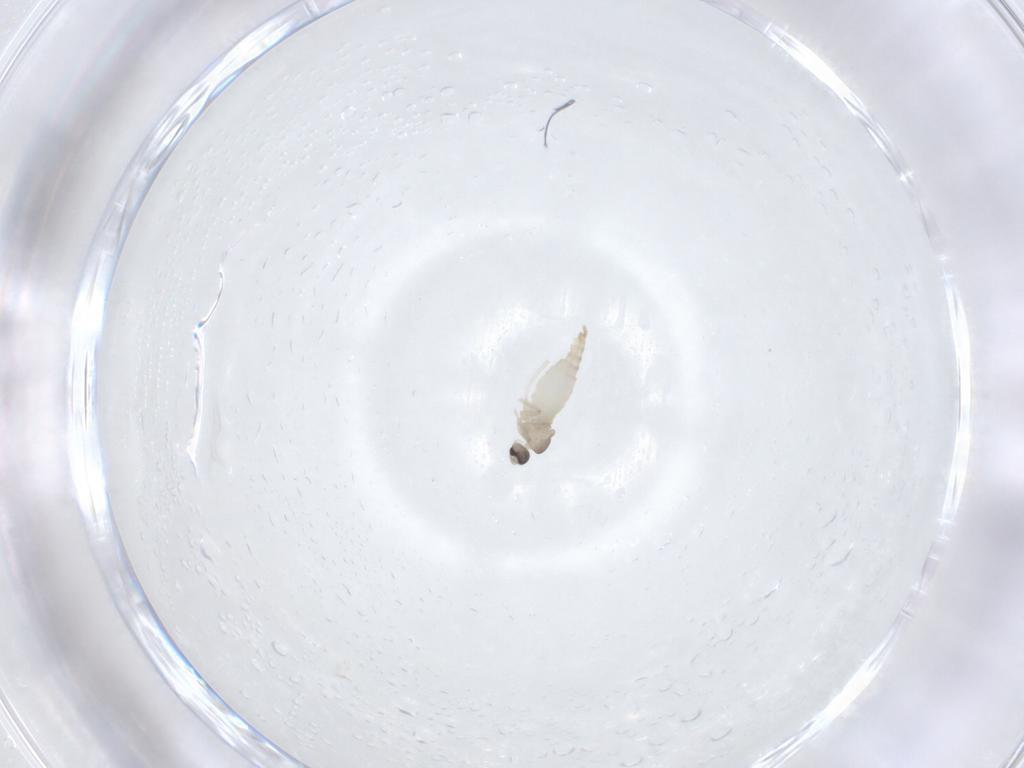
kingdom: Animalia
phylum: Arthropoda
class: Insecta
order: Diptera
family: Cecidomyiidae
